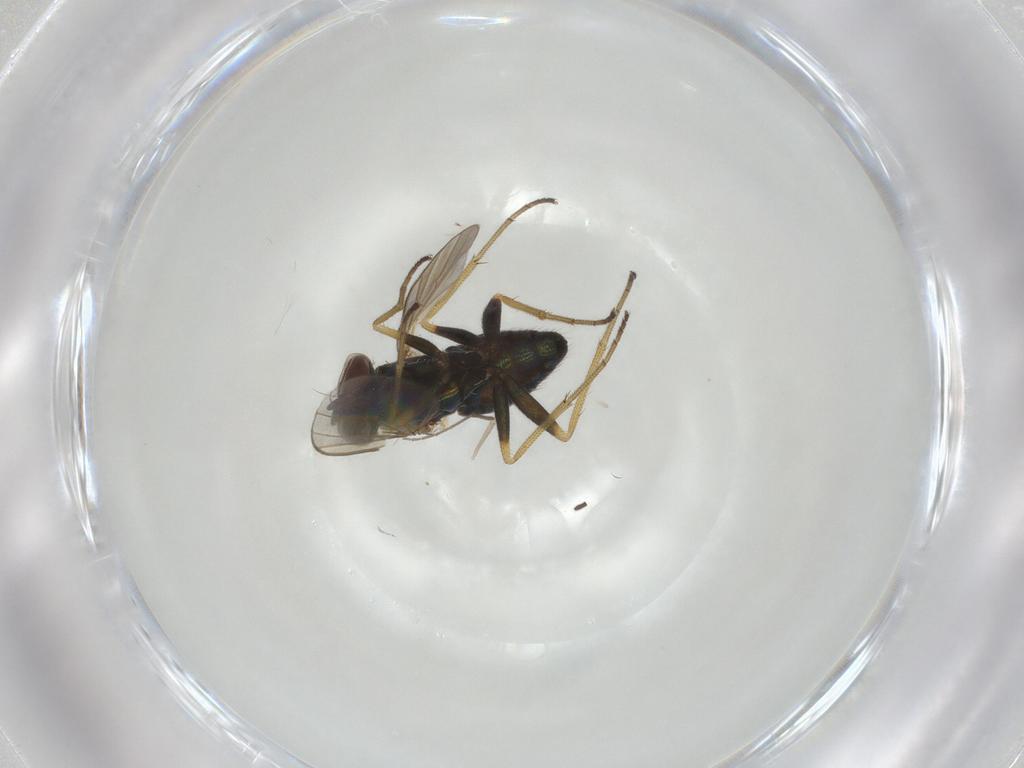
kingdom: Animalia
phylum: Arthropoda
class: Insecta
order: Diptera
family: Dolichopodidae
